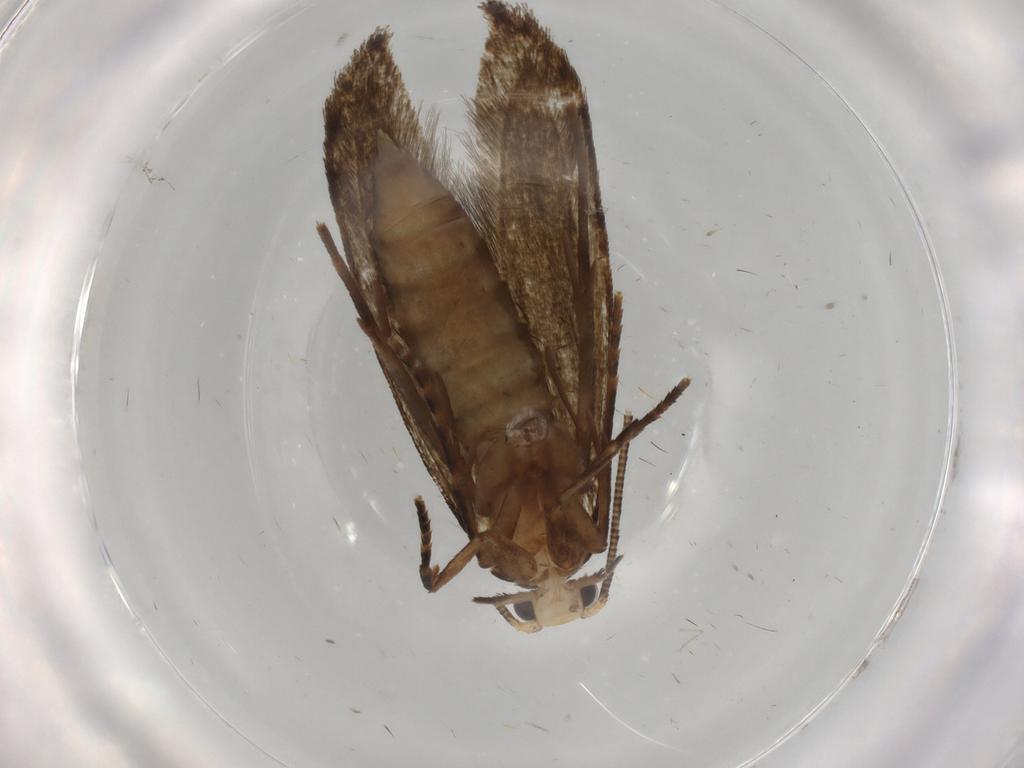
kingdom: Animalia
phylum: Arthropoda
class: Insecta
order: Lepidoptera
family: Tineidae
